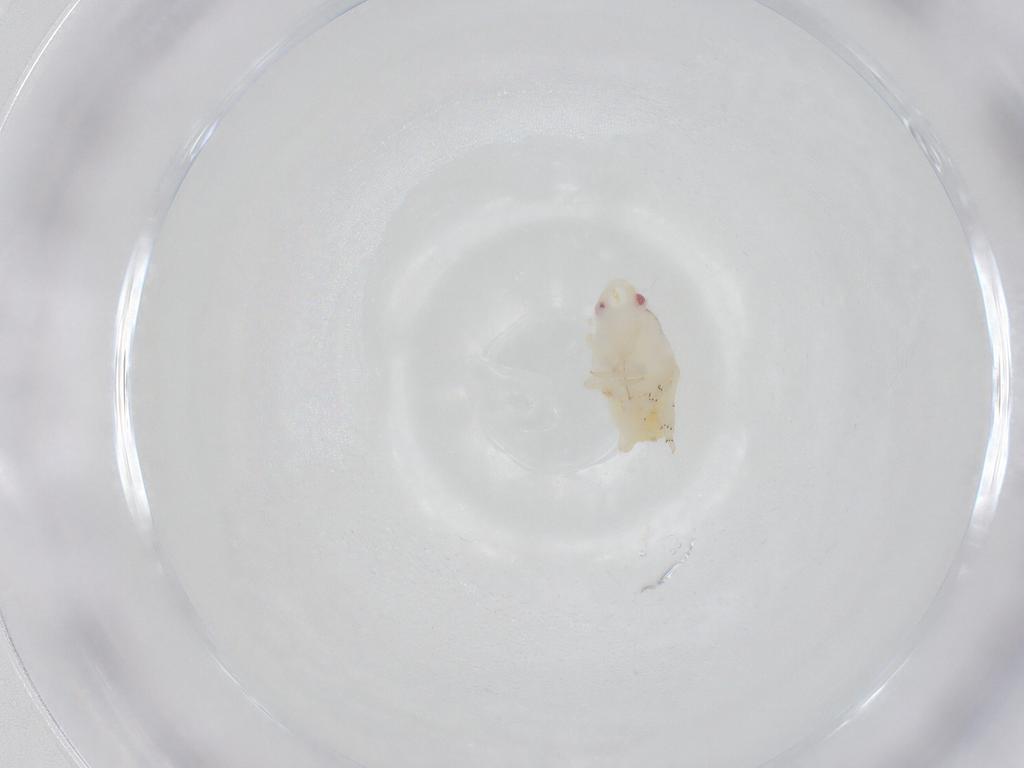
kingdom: Animalia
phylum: Arthropoda
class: Insecta
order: Hemiptera
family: Flatidae
